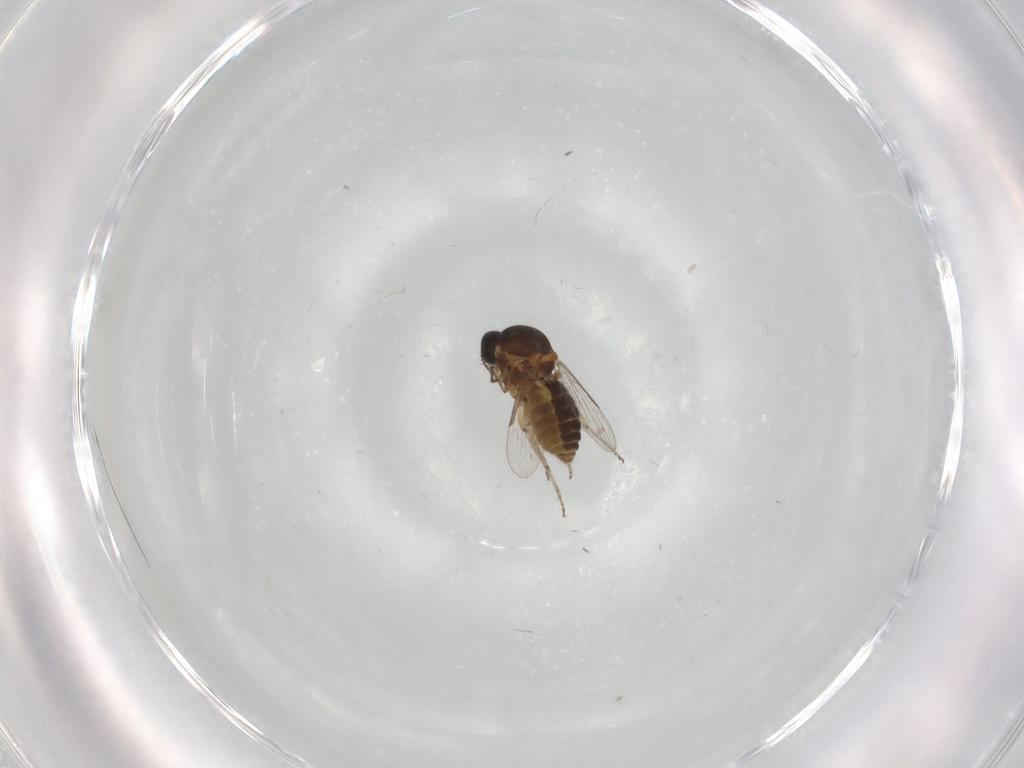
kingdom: Animalia
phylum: Arthropoda
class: Insecta
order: Diptera
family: Ceratopogonidae
